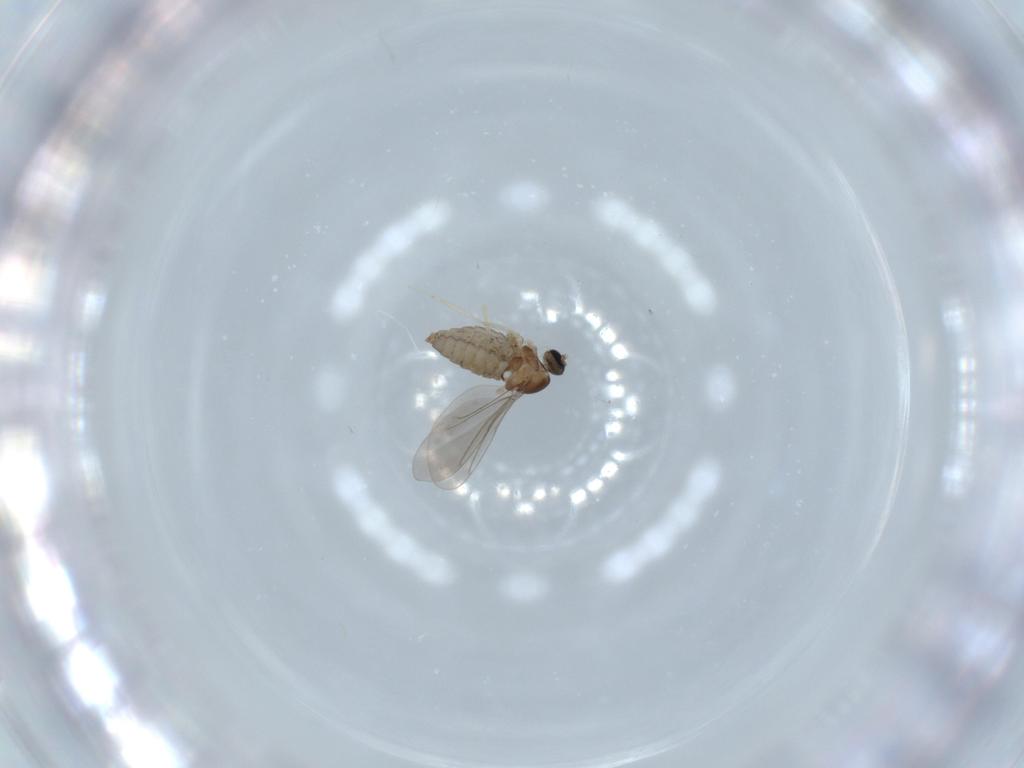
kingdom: Animalia
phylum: Arthropoda
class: Insecta
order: Diptera
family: Cecidomyiidae
